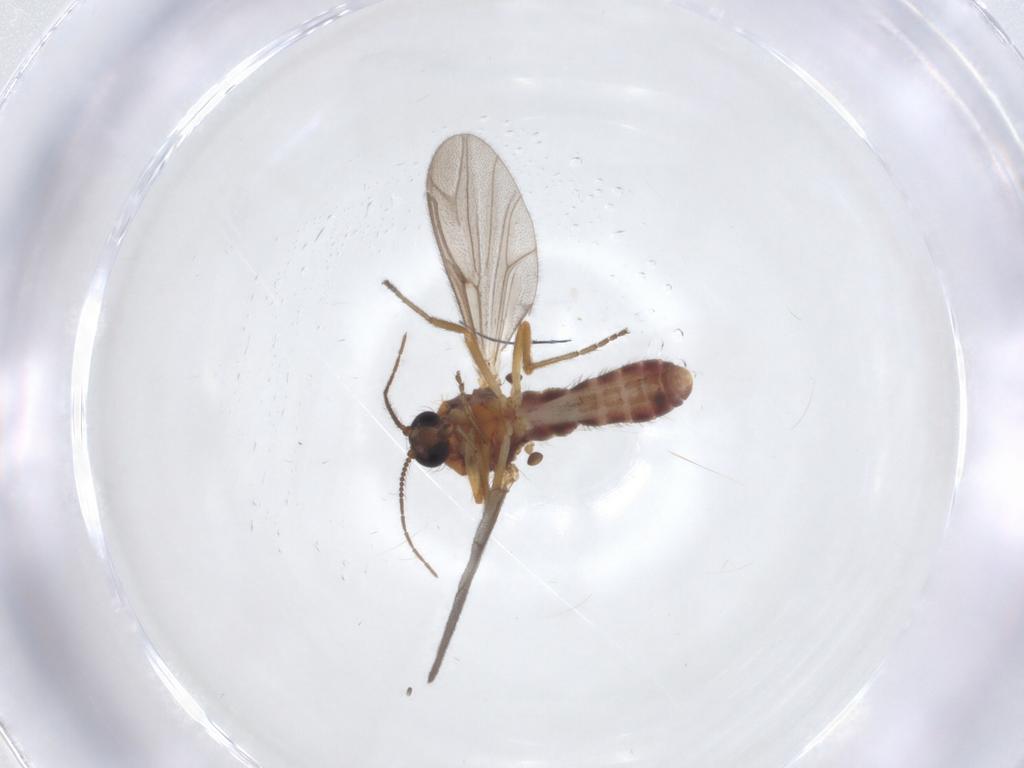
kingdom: Animalia
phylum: Arthropoda
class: Insecta
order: Diptera
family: Ceratopogonidae
